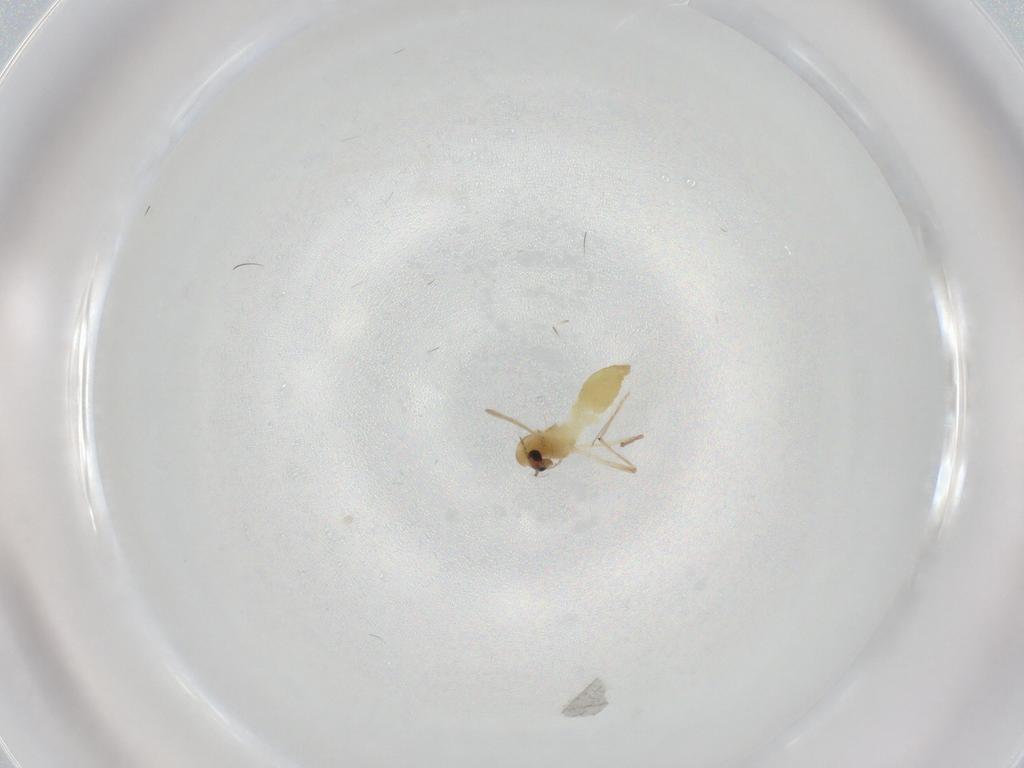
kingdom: Animalia
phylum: Arthropoda
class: Insecta
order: Diptera
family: Chironomidae
